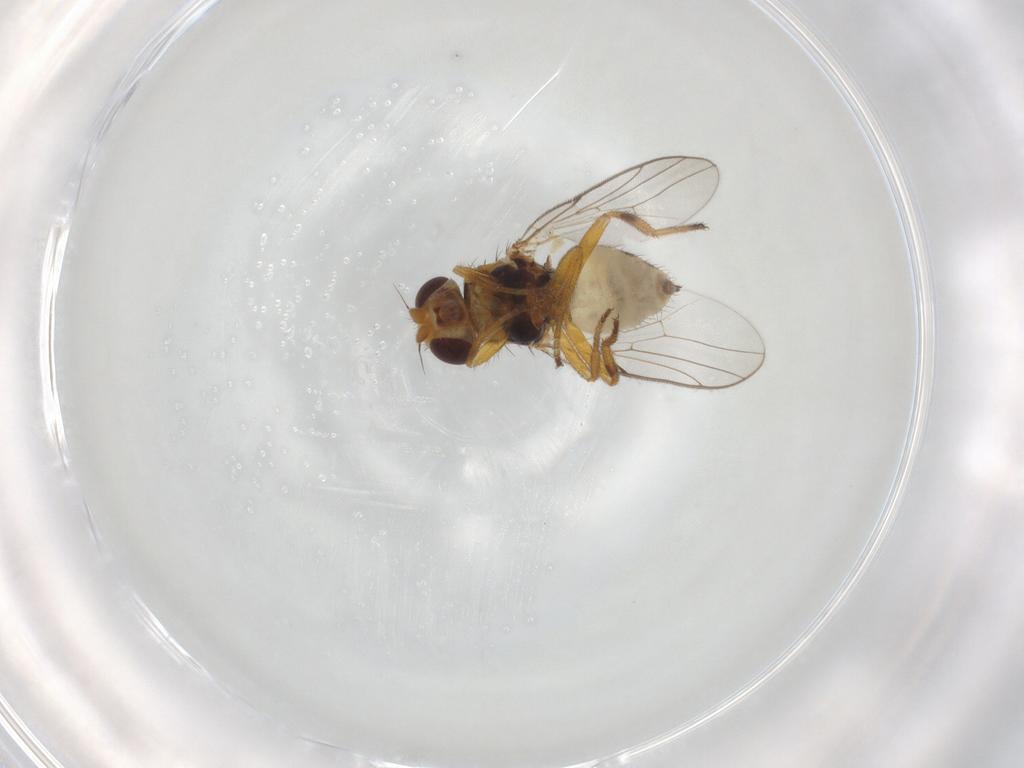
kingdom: Animalia
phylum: Arthropoda
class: Insecta
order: Diptera
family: Chloropidae
